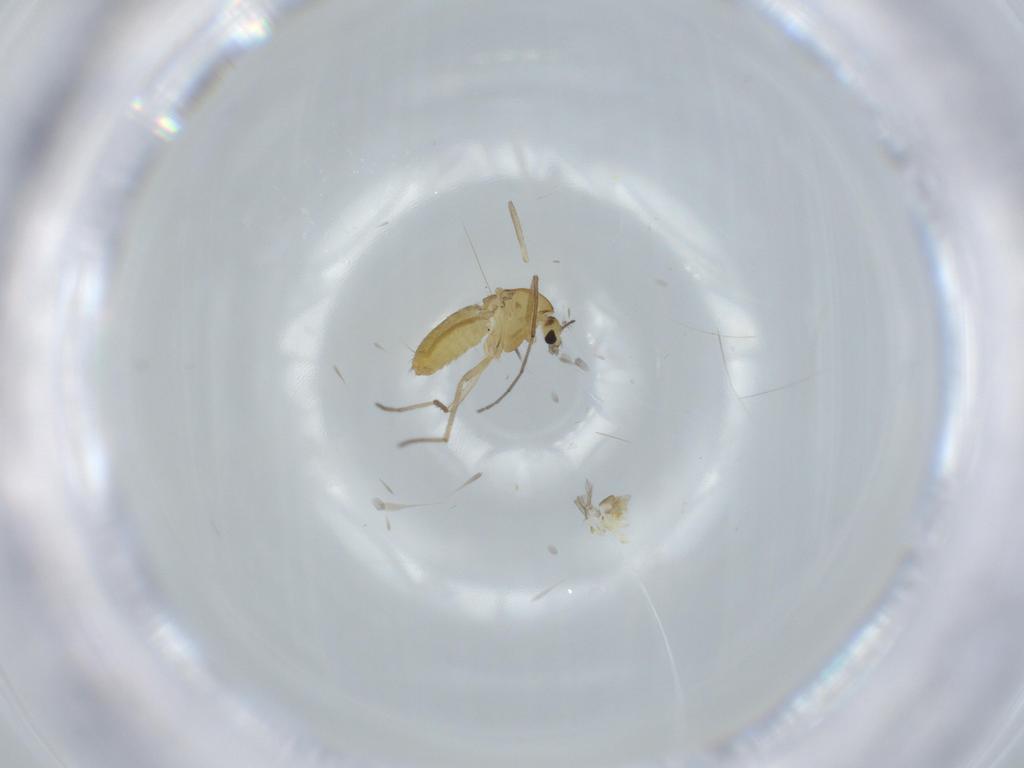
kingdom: Animalia
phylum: Arthropoda
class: Insecta
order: Diptera
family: Chironomidae
